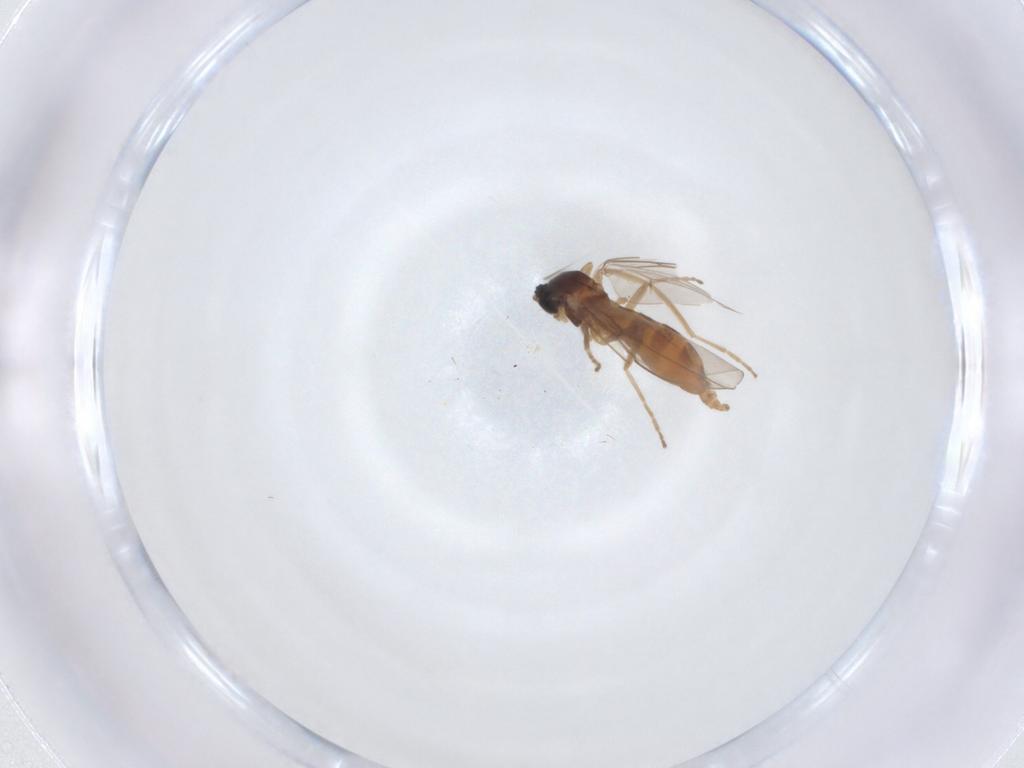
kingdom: Animalia
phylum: Arthropoda
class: Insecta
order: Diptera
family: Cecidomyiidae
